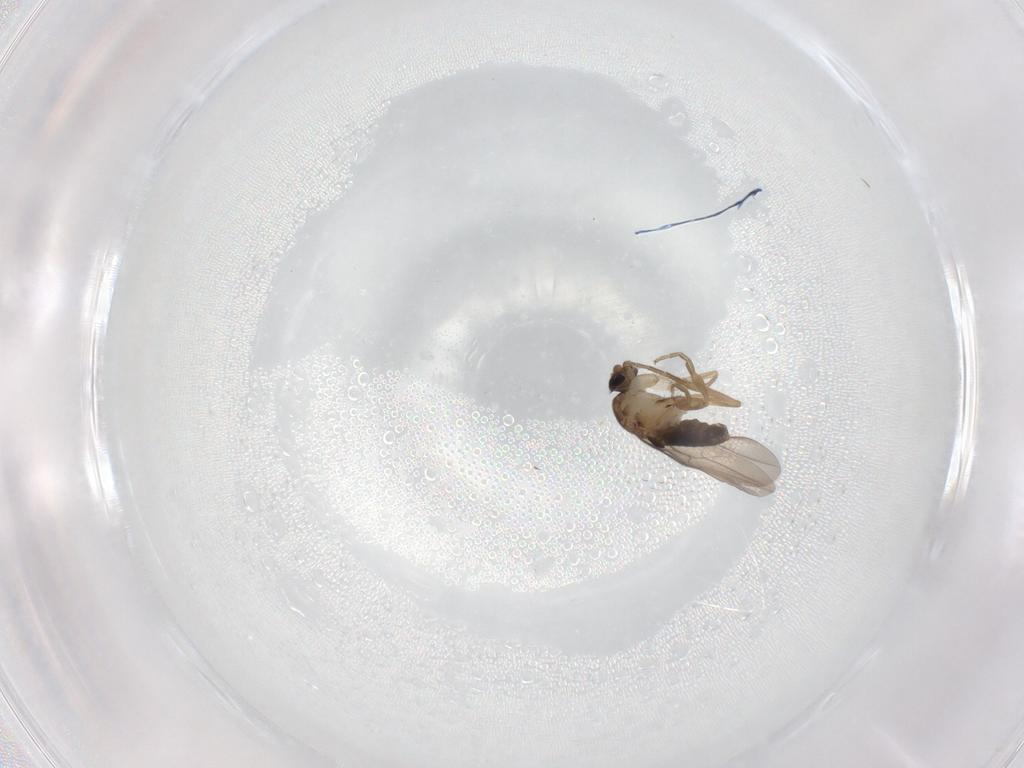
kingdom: Animalia
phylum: Arthropoda
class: Insecta
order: Diptera
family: Phoridae
